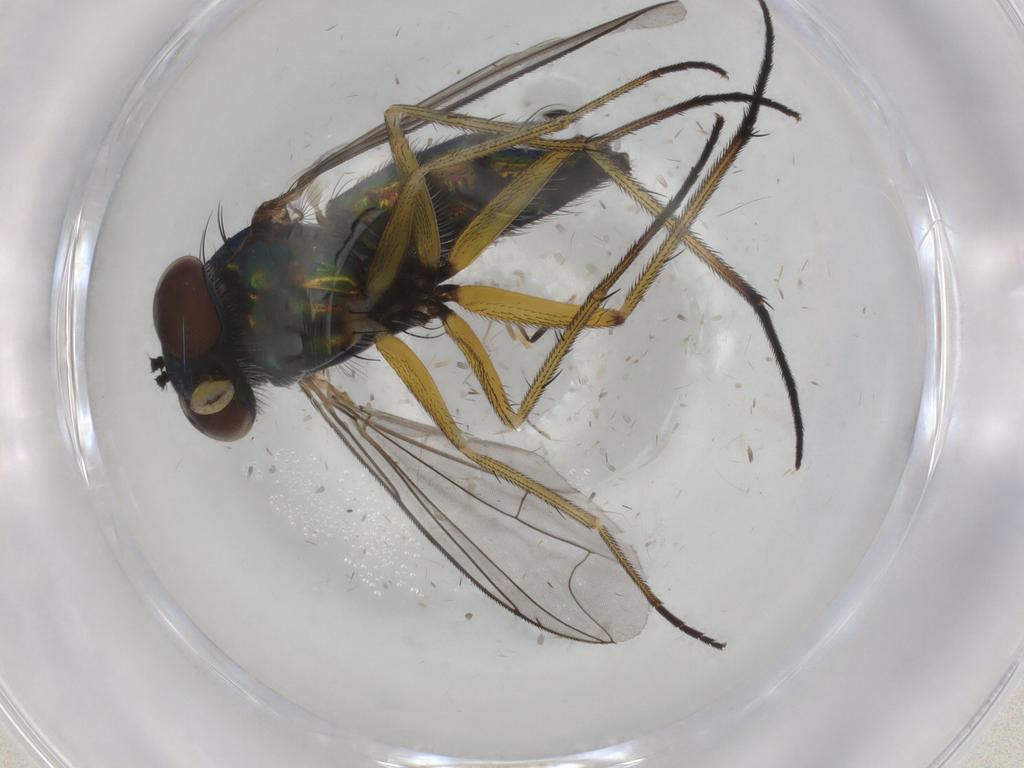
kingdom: Animalia
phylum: Arthropoda
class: Insecta
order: Diptera
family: Dolichopodidae
